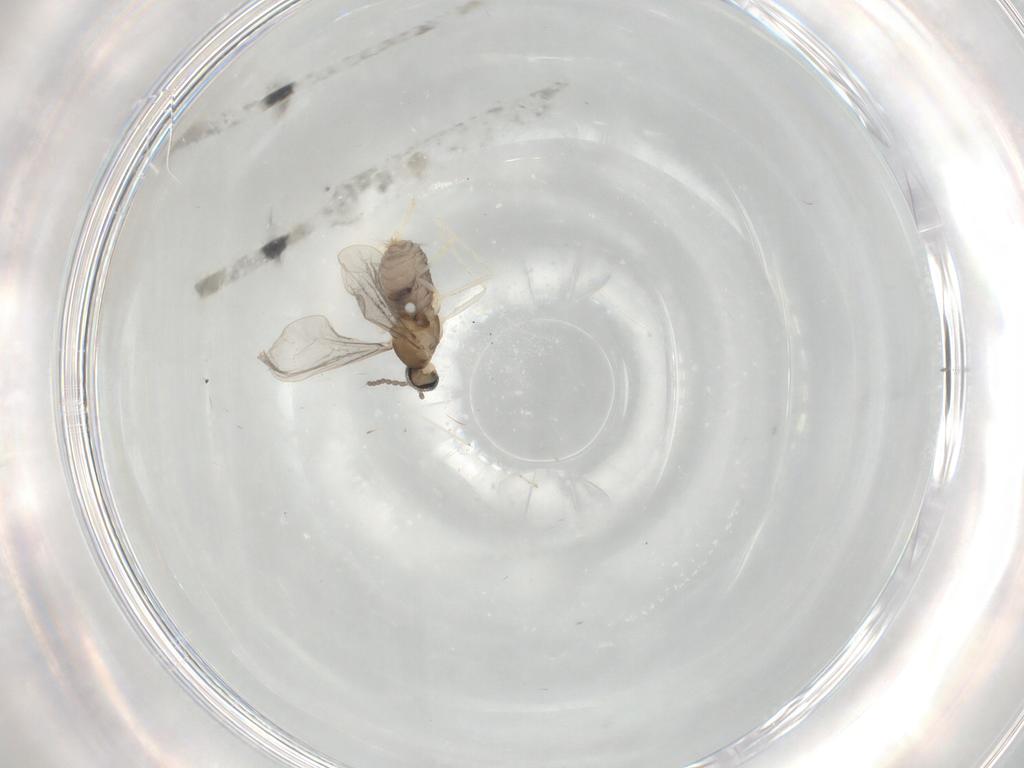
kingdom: Animalia
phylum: Arthropoda
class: Insecta
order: Diptera
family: Cecidomyiidae
